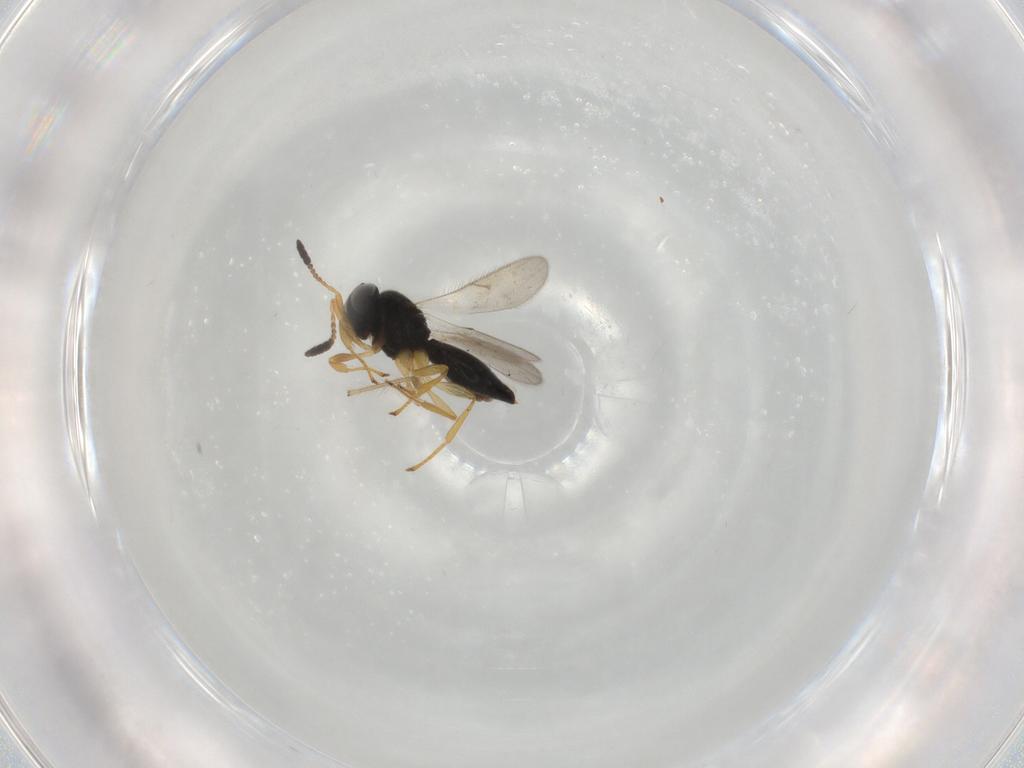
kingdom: Animalia
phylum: Arthropoda
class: Insecta
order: Hymenoptera
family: Scelionidae
